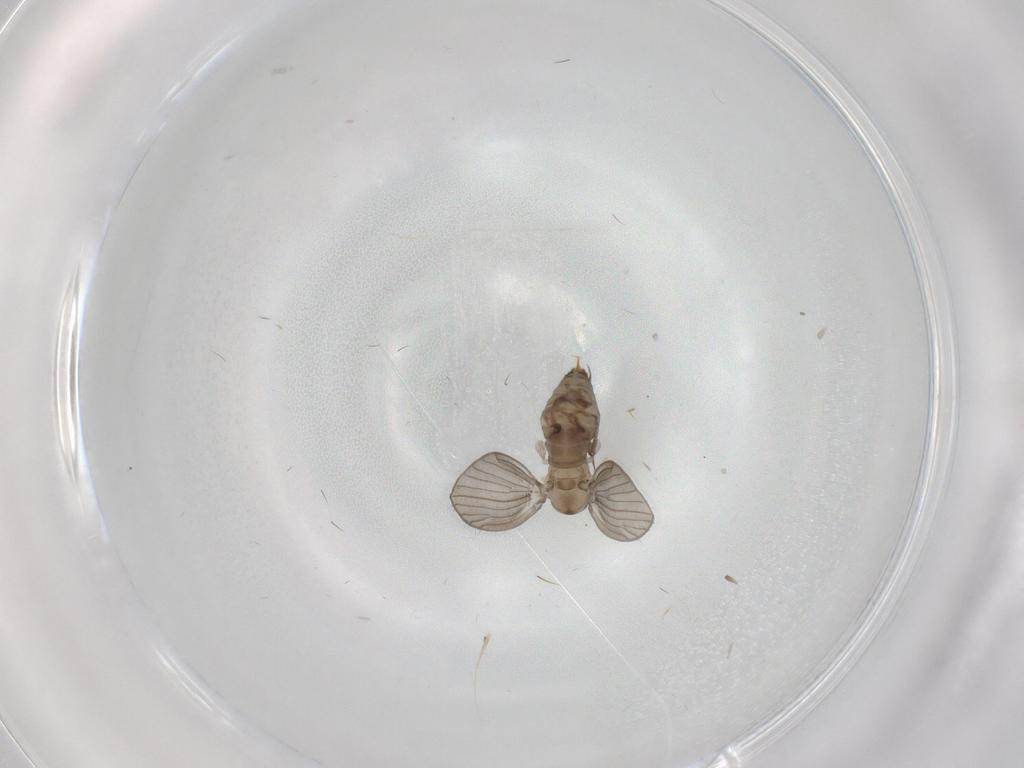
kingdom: Animalia
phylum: Arthropoda
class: Insecta
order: Diptera
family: Psychodidae
